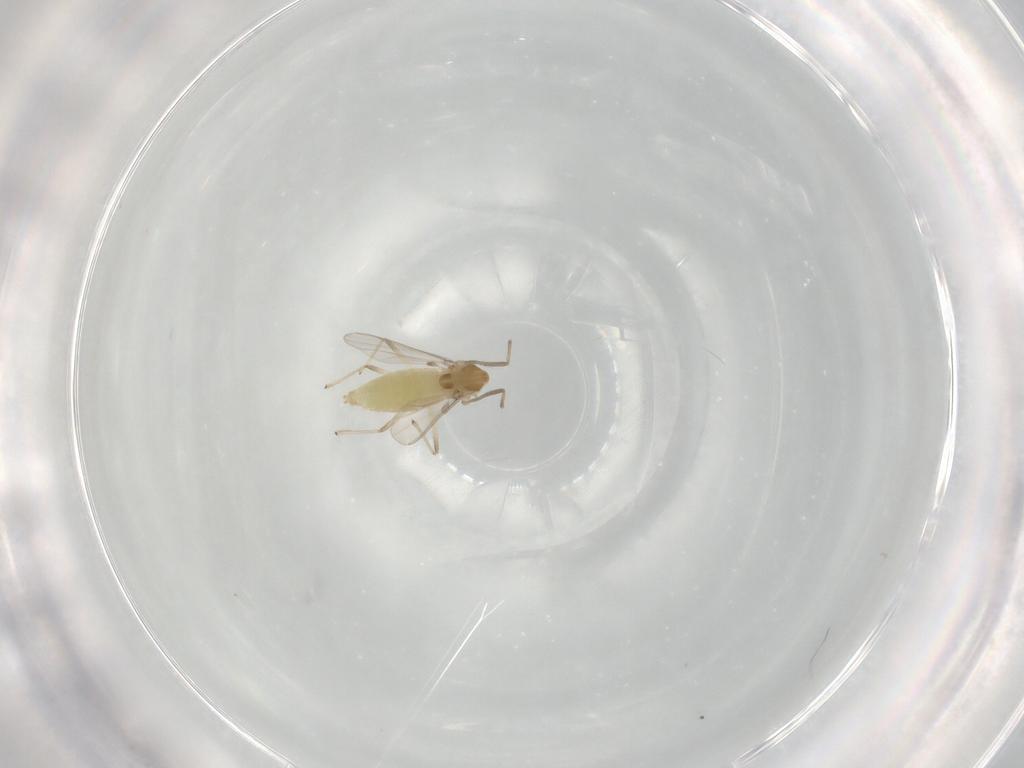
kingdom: Animalia
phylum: Arthropoda
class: Insecta
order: Diptera
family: Chironomidae
